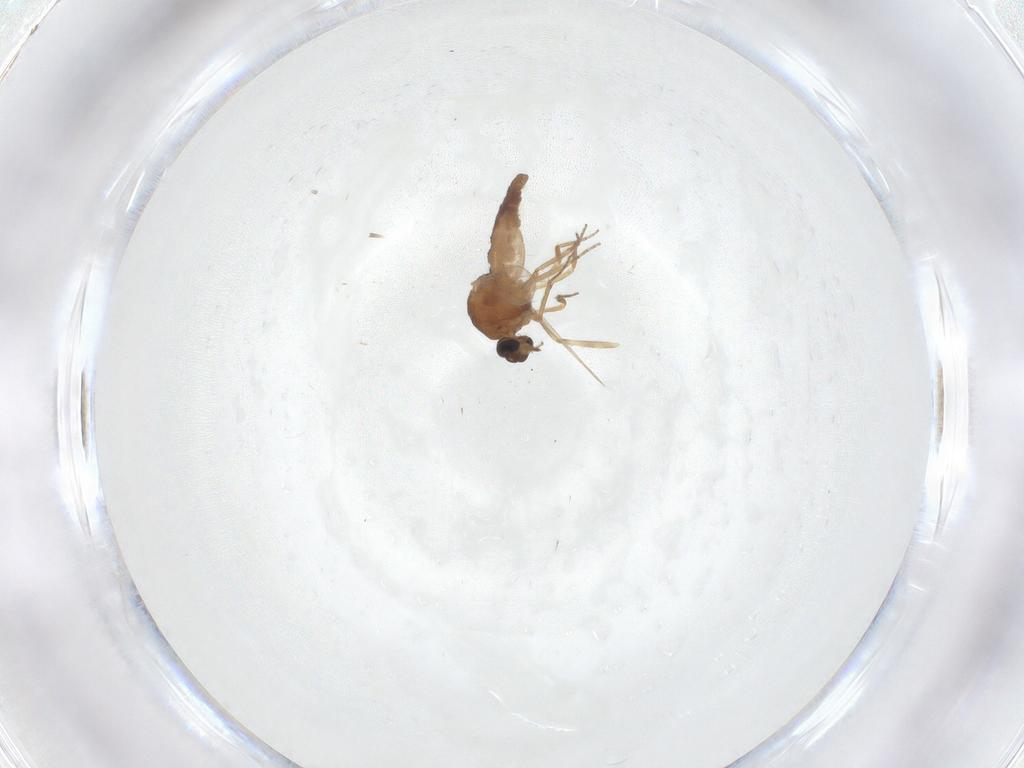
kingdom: Animalia
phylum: Arthropoda
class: Insecta
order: Diptera
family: Ceratopogonidae
